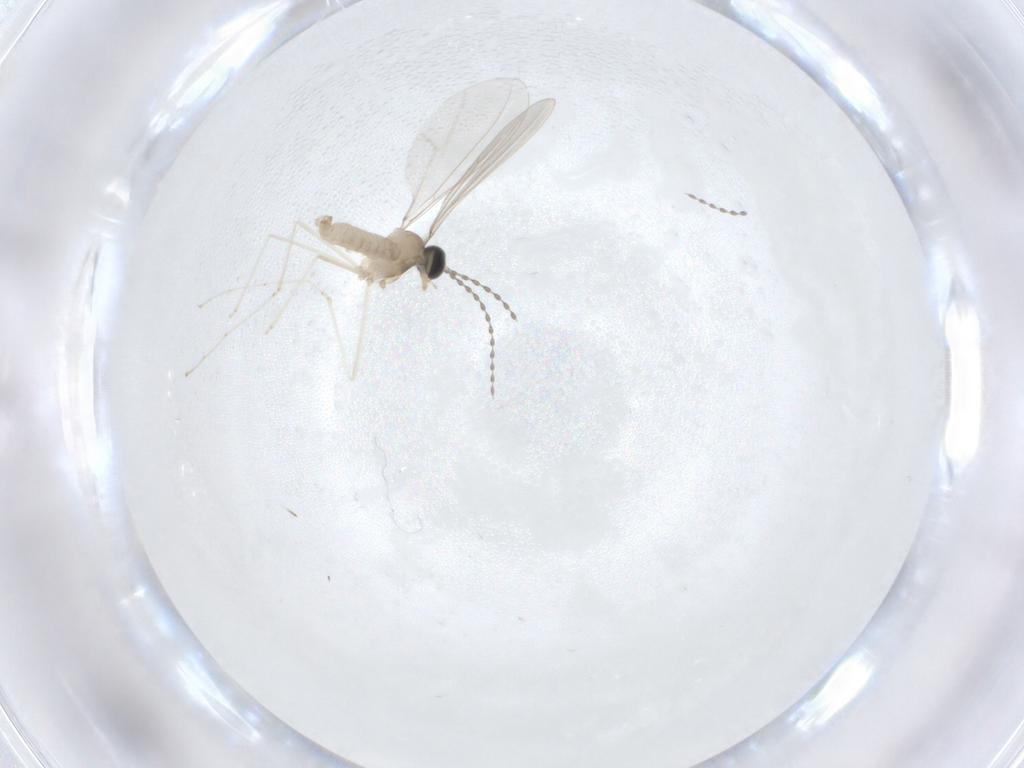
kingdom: Animalia
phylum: Arthropoda
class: Insecta
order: Diptera
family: Cecidomyiidae
